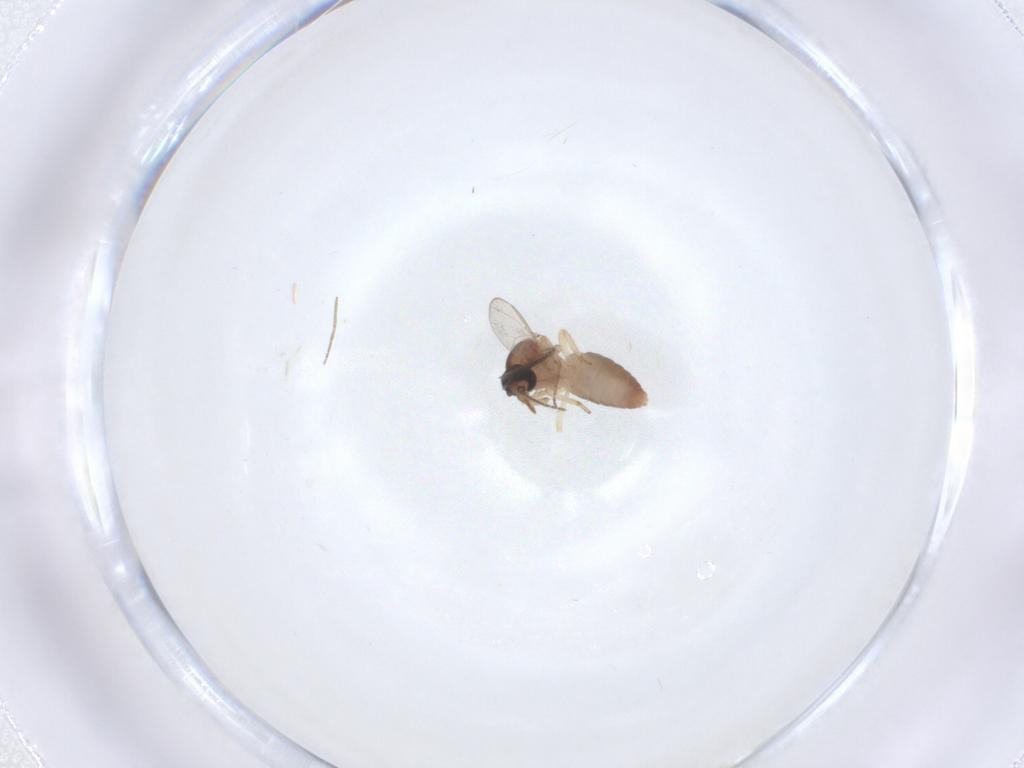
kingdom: Animalia
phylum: Arthropoda
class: Insecta
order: Diptera
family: Ceratopogonidae
